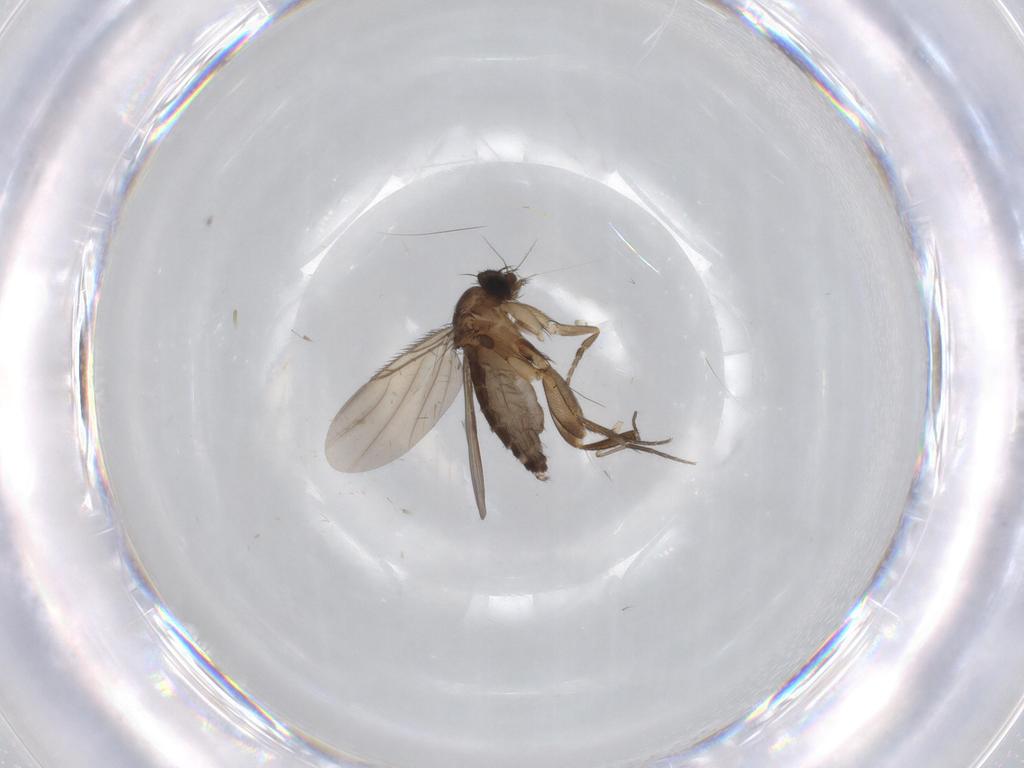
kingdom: Animalia
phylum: Arthropoda
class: Insecta
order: Diptera
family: Phoridae
